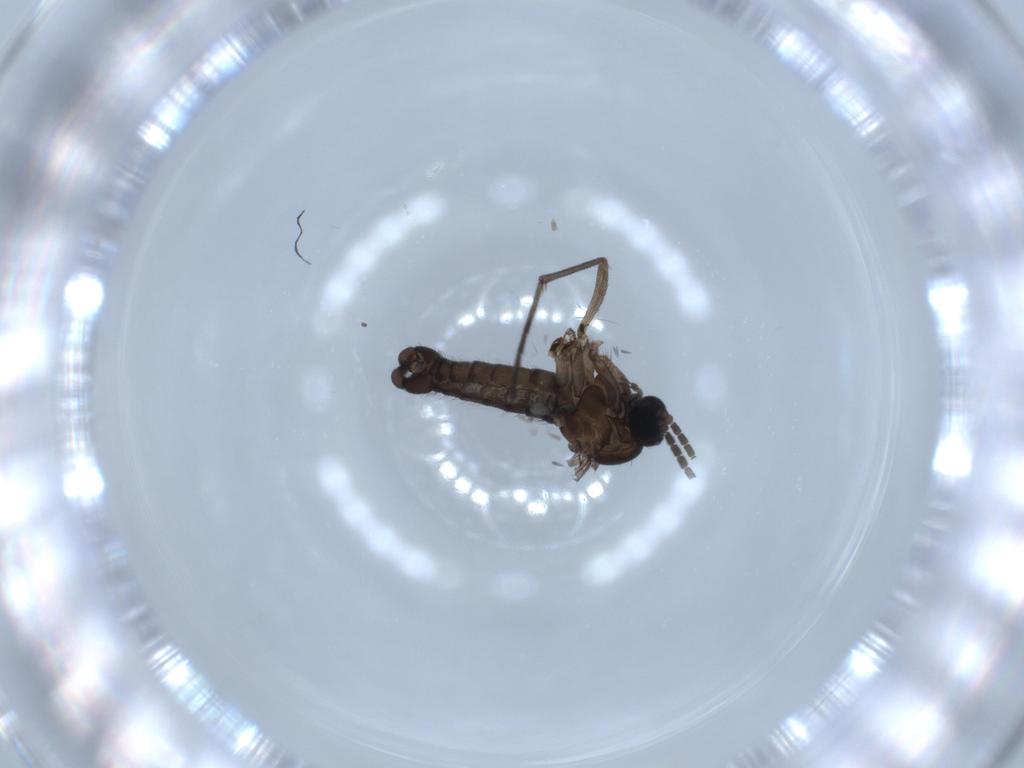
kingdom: Animalia
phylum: Arthropoda
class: Insecta
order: Diptera
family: Sciaridae
